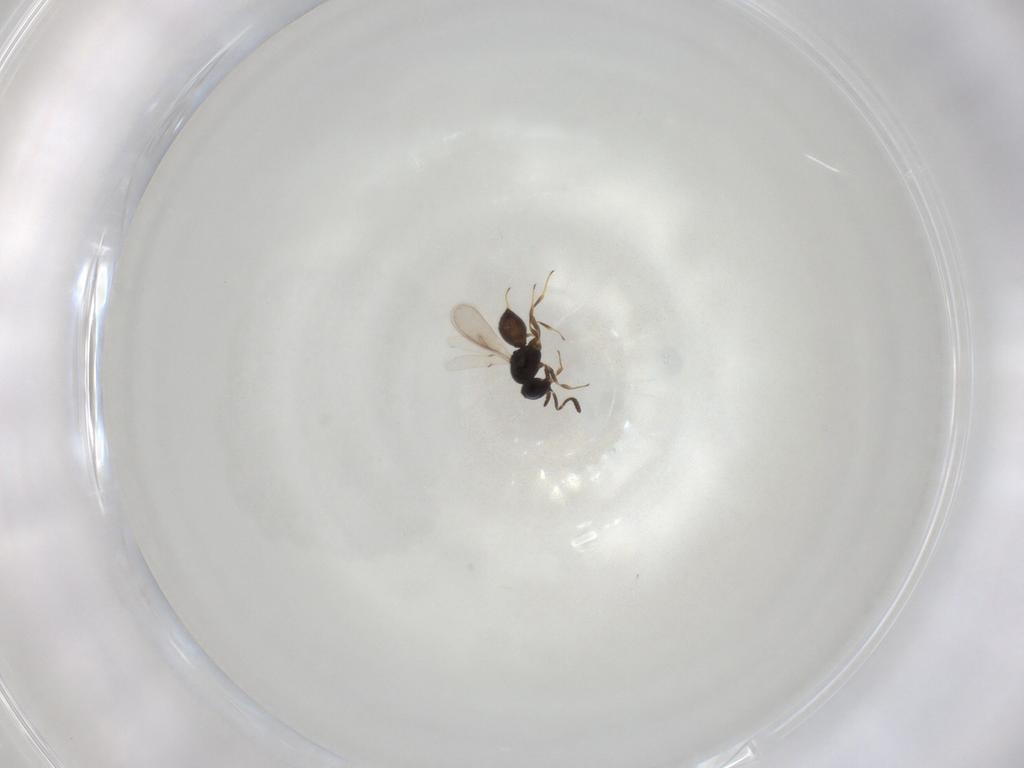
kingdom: Animalia
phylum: Arthropoda
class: Insecta
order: Hymenoptera
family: Scelionidae
